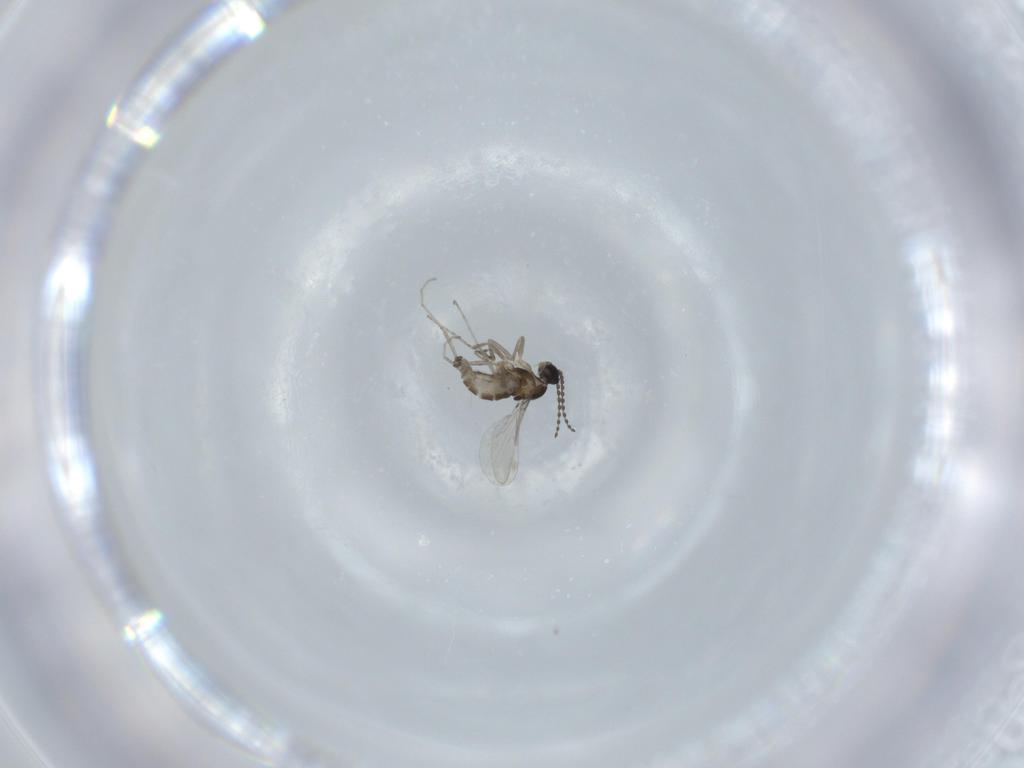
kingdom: Animalia
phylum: Arthropoda
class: Insecta
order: Diptera
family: Cecidomyiidae
